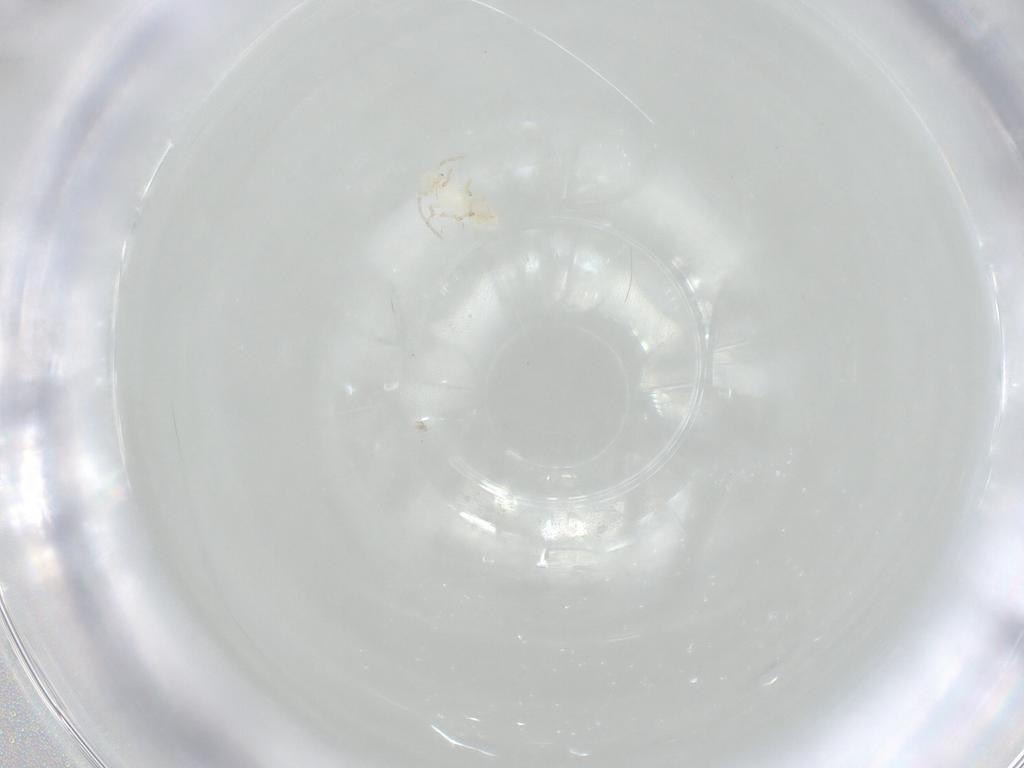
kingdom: Animalia
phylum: Arthropoda
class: Insecta
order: Psocodea
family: Caeciliusidae
